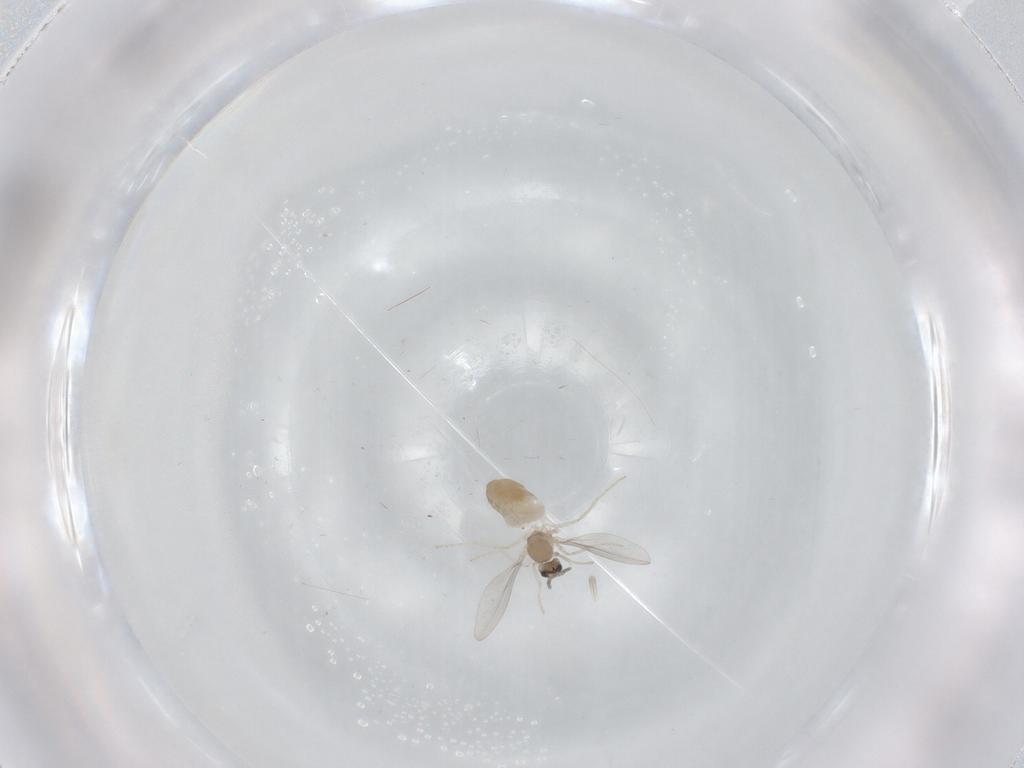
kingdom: Animalia
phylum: Arthropoda
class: Insecta
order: Diptera
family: Cecidomyiidae
